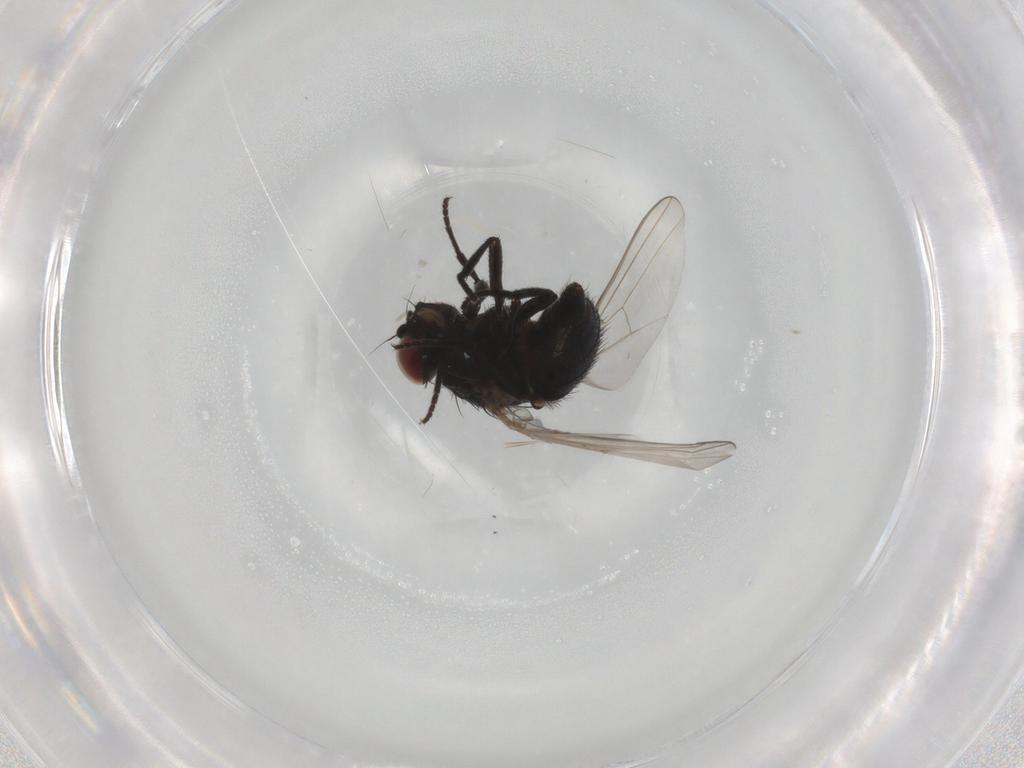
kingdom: Animalia
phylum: Arthropoda
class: Insecta
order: Diptera
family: Agromyzidae
